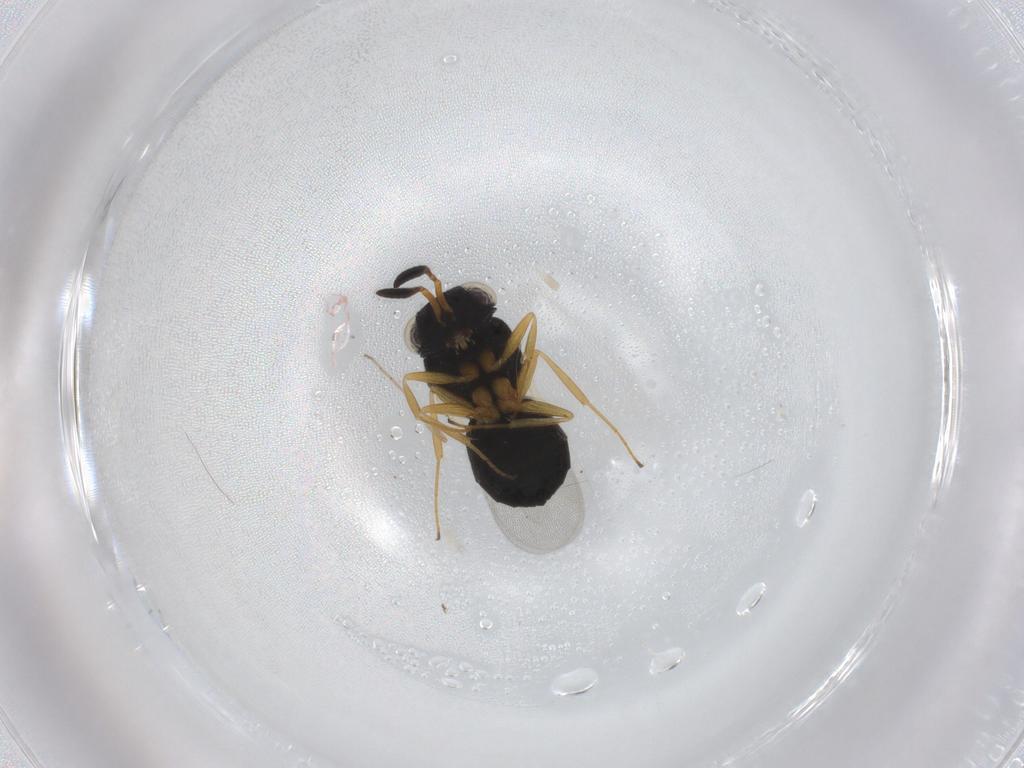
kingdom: Animalia
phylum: Arthropoda
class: Insecta
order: Hymenoptera
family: Scelionidae
